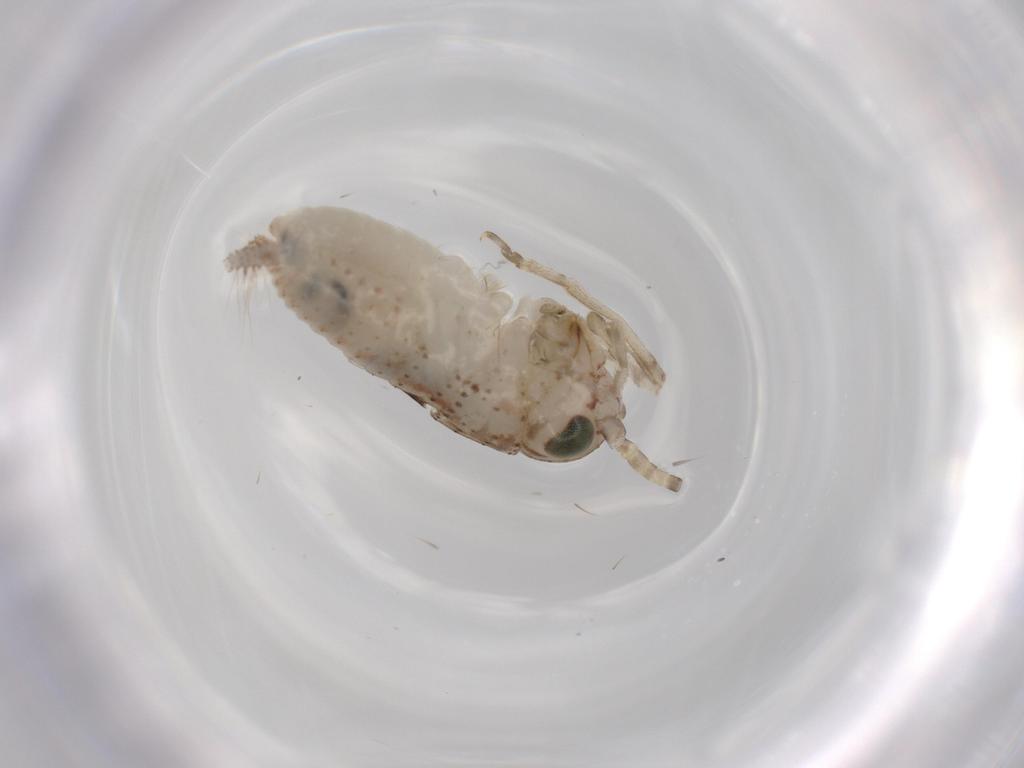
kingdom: Animalia
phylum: Arthropoda
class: Insecta
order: Orthoptera
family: Trigonidiidae
